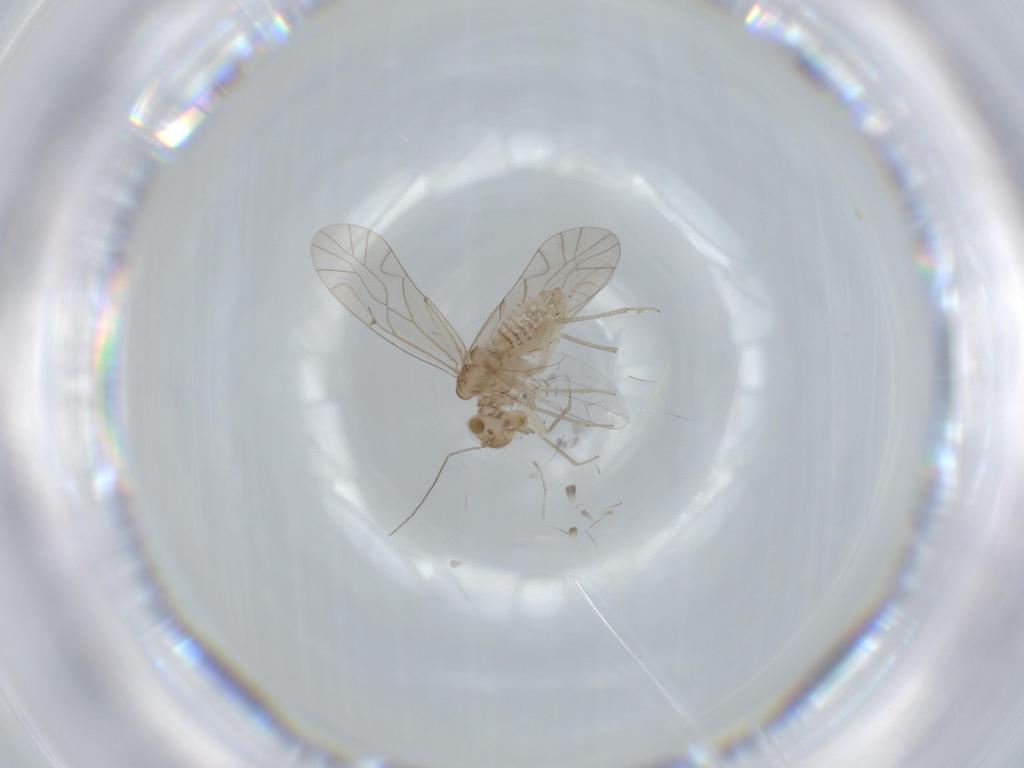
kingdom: Animalia
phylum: Arthropoda
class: Insecta
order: Psocodea
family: Lachesillidae
